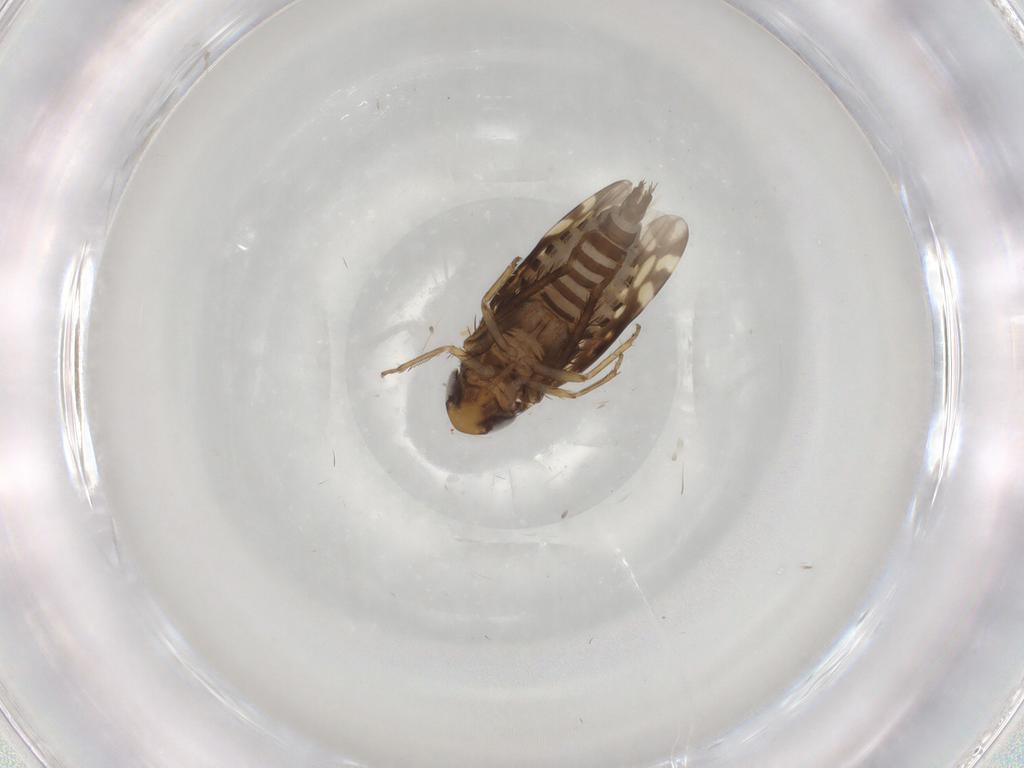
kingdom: Animalia
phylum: Arthropoda
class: Insecta
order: Hemiptera
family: Cicadellidae
